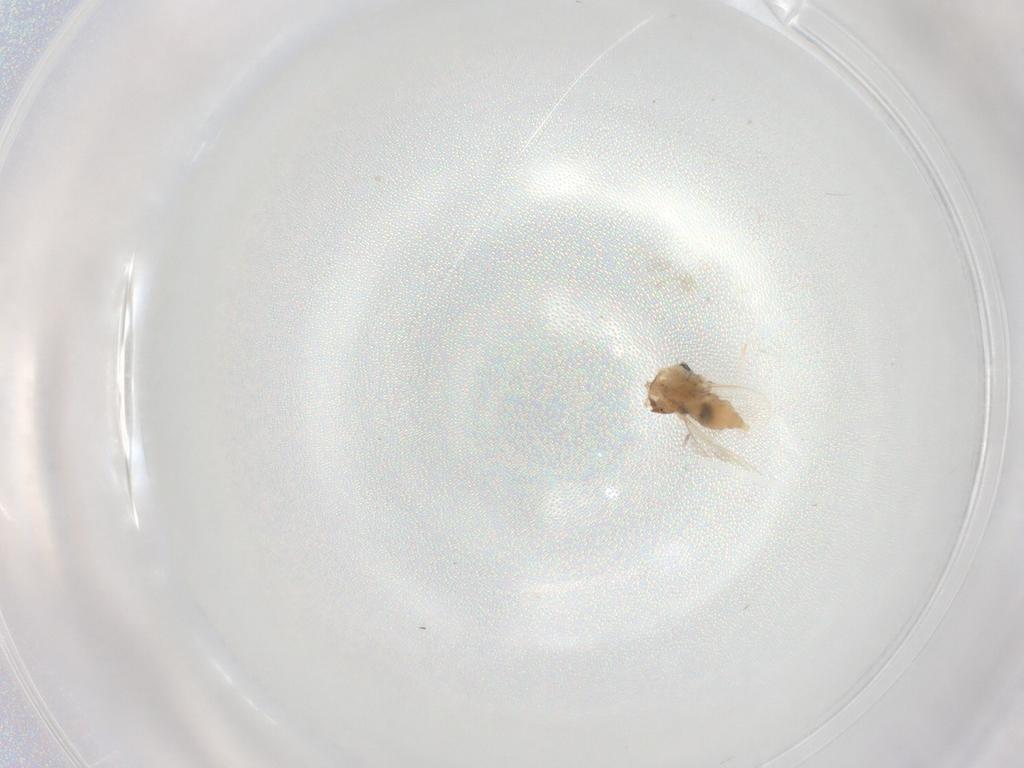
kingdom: Animalia
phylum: Arthropoda
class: Insecta
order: Diptera
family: Cecidomyiidae
